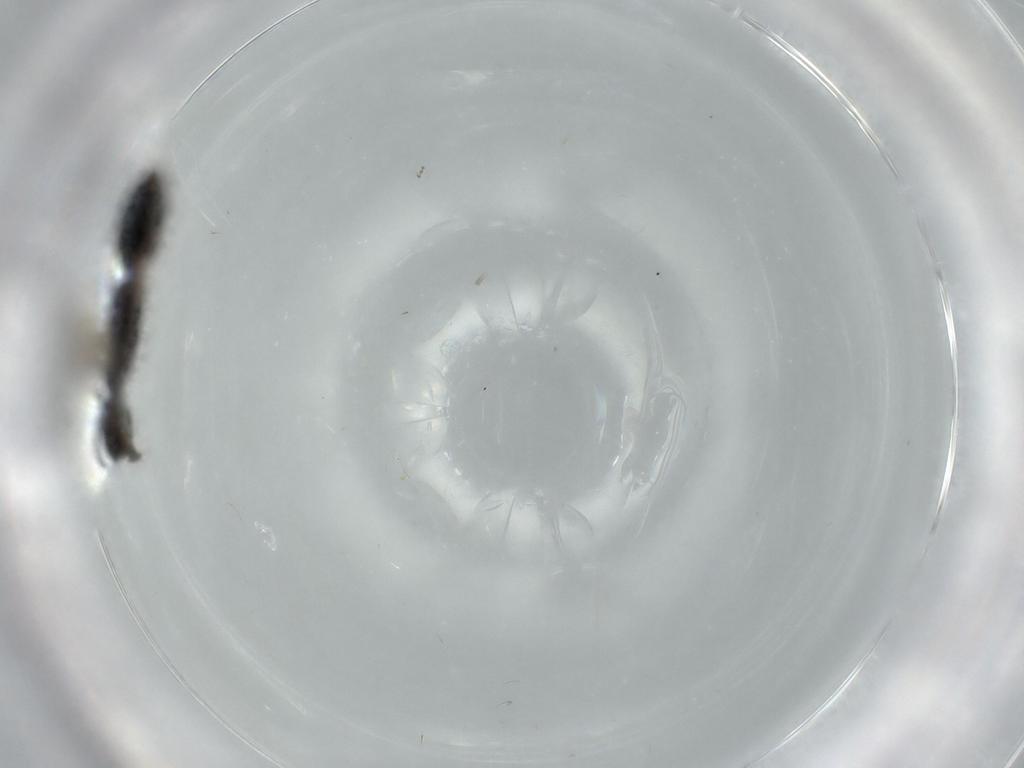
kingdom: Animalia
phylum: Arthropoda
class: Insecta
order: Hymenoptera
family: Bethylidae
